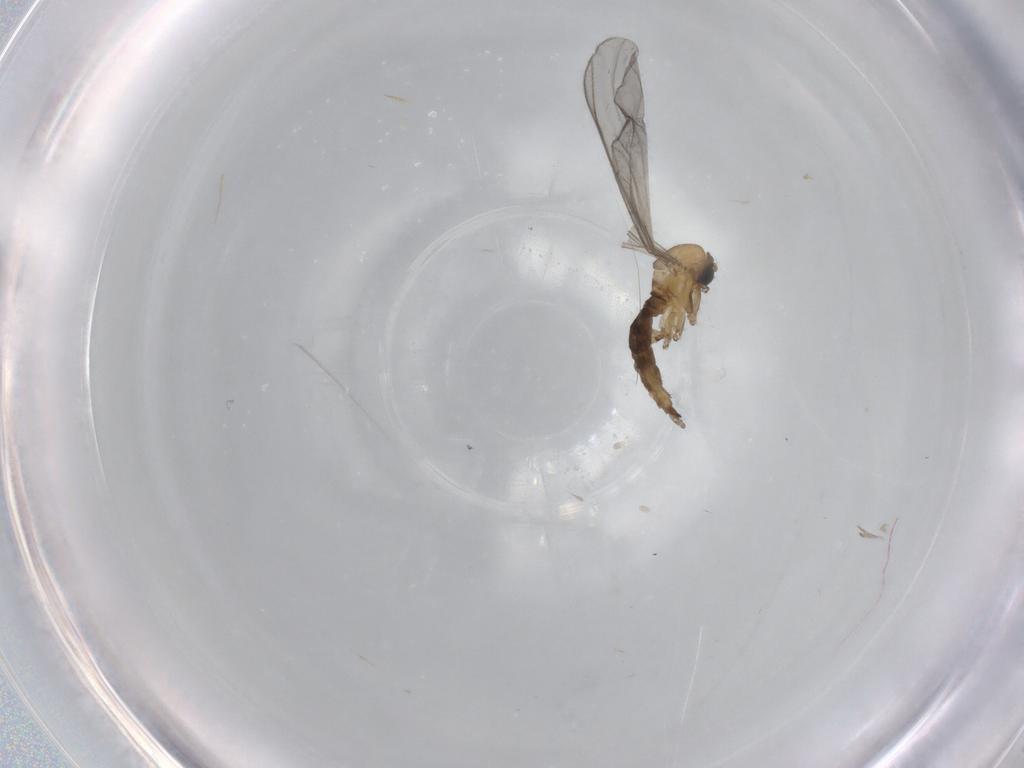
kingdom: Animalia
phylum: Arthropoda
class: Insecta
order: Diptera
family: Sciaridae
